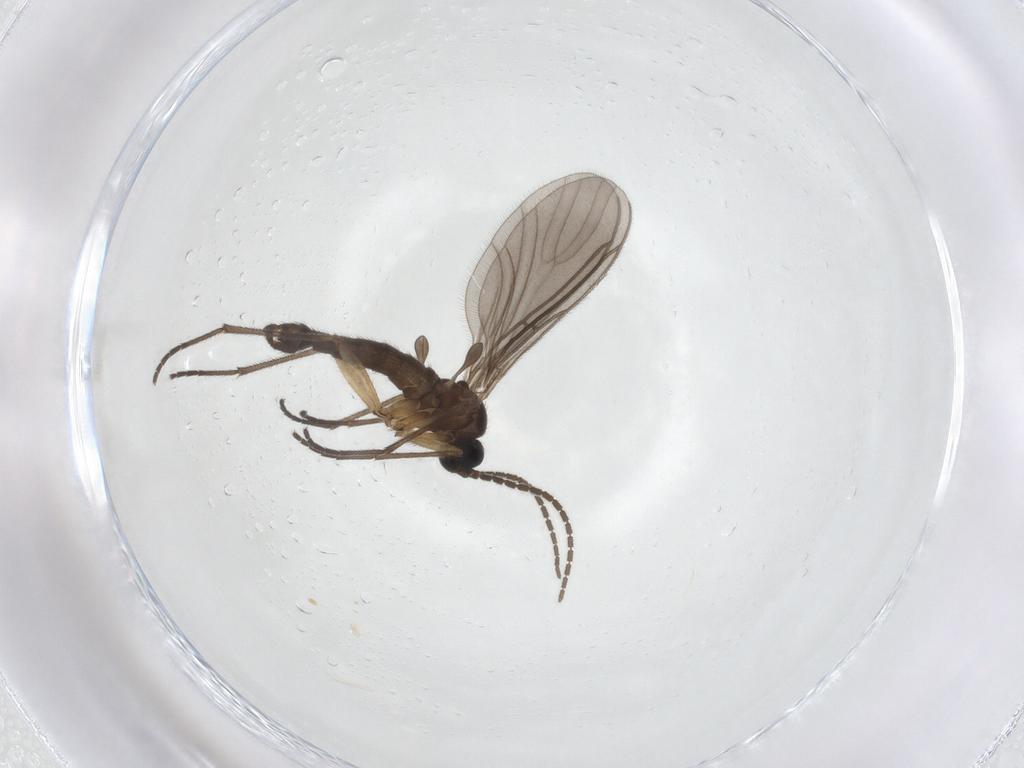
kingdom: Animalia
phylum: Arthropoda
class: Insecta
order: Diptera
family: Sciaridae
